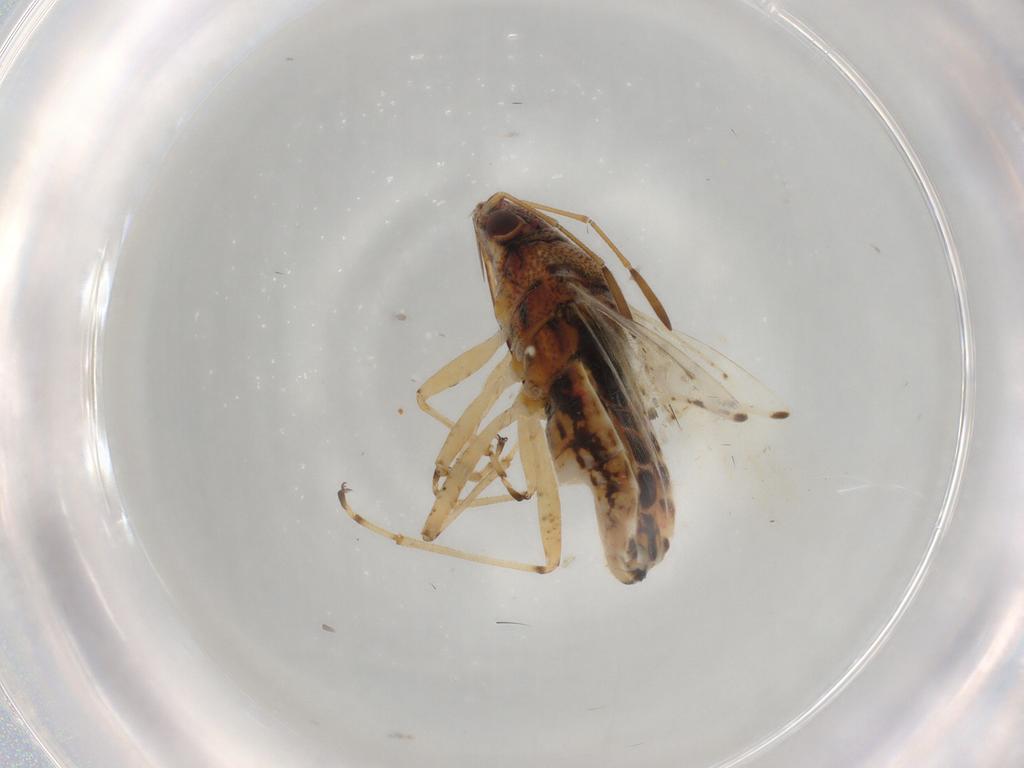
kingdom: Animalia
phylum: Arthropoda
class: Insecta
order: Hemiptera
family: Lygaeidae
